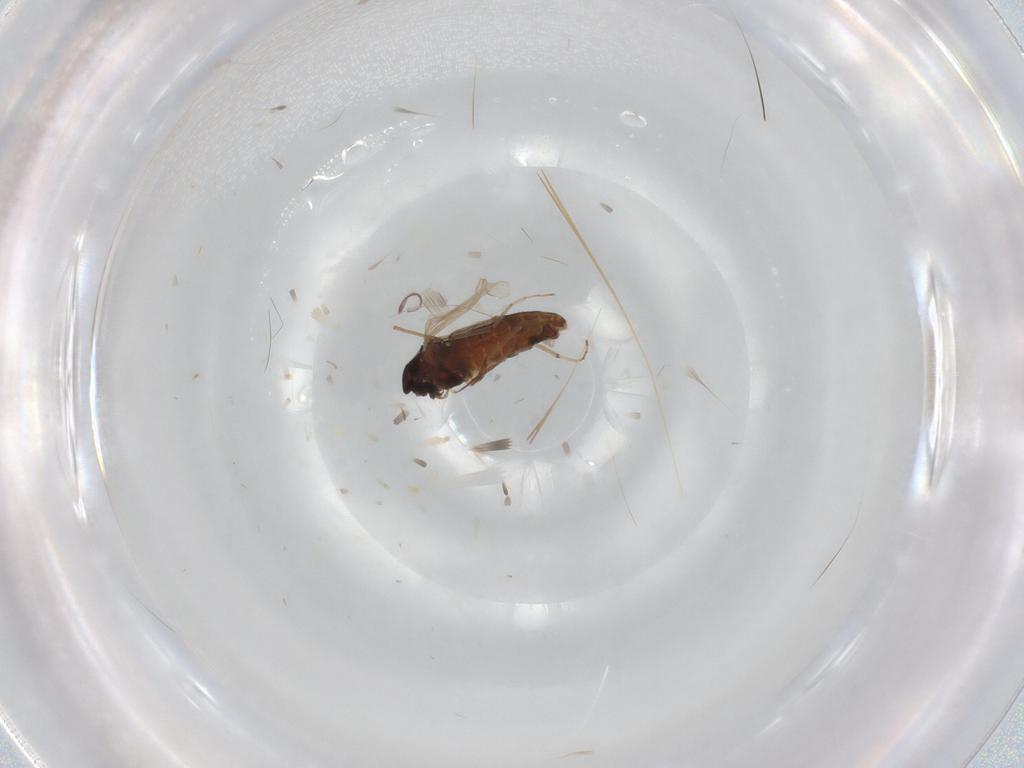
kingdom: Animalia
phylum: Arthropoda
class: Insecta
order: Diptera
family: Chironomidae
